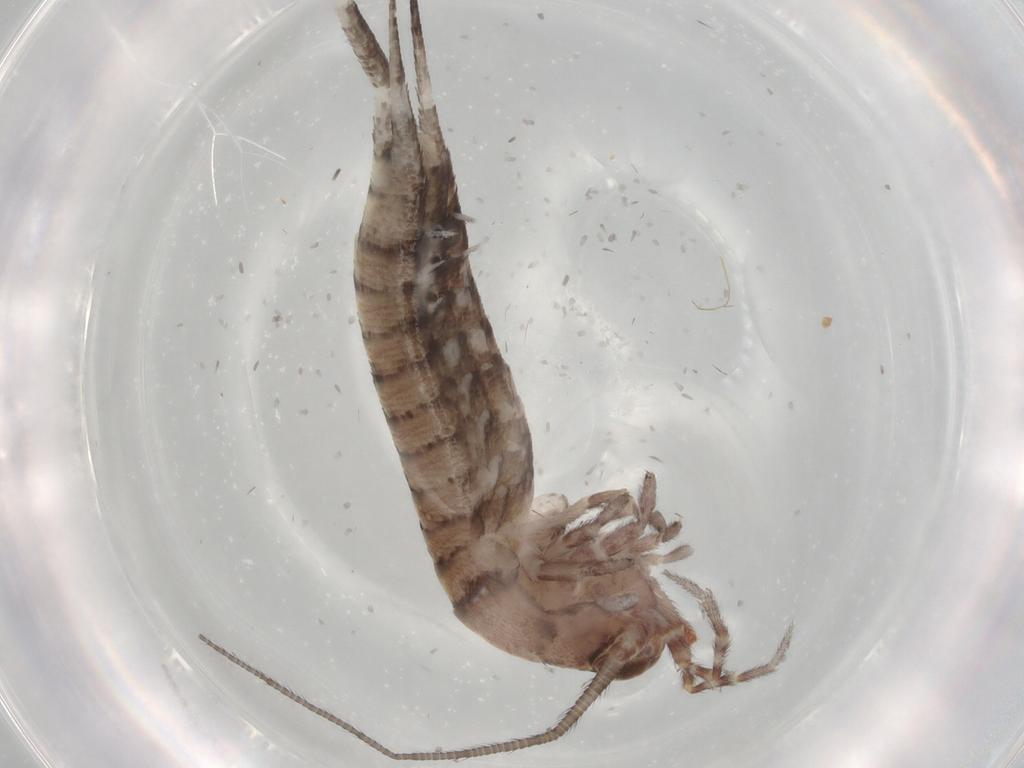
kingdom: Animalia
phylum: Arthropoda
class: Insecta
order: Archaeognatha
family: Machilidae
